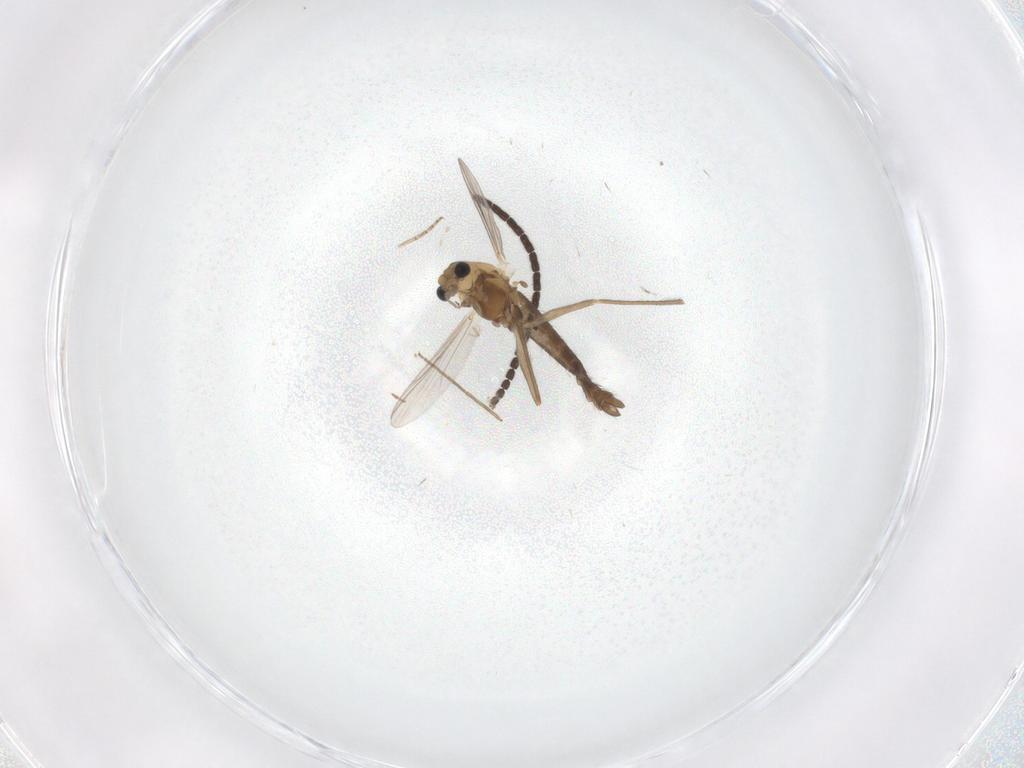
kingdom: Animalia
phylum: Arthropoda
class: Insecta
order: Diptera
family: Chironomidae
